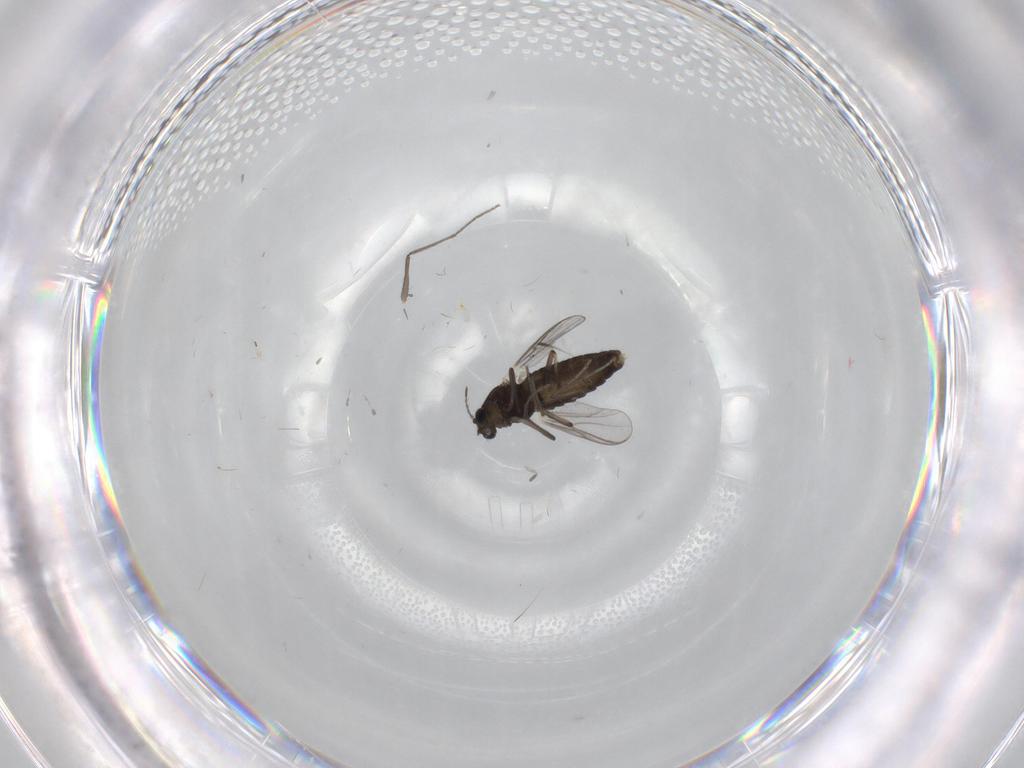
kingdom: Animalia
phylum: Arthropoda
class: Insecta
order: Diptera
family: Chironomidae
